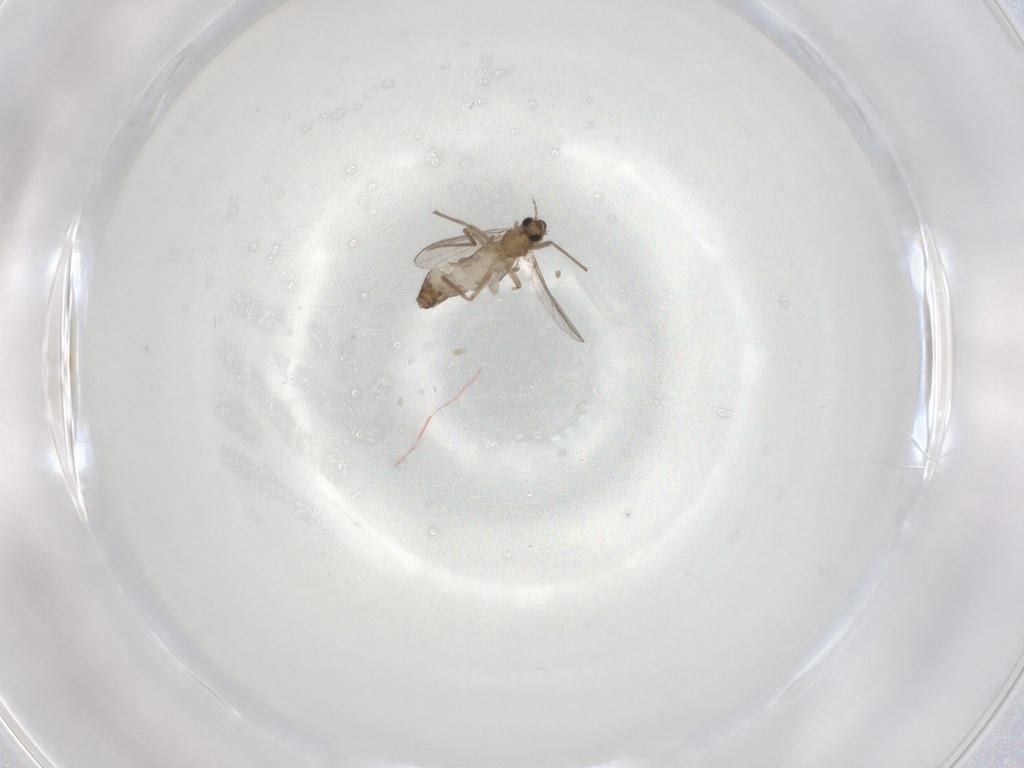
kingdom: Animalia
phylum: Arthropoda
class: Insecta
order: Diptera
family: Chironomidae
